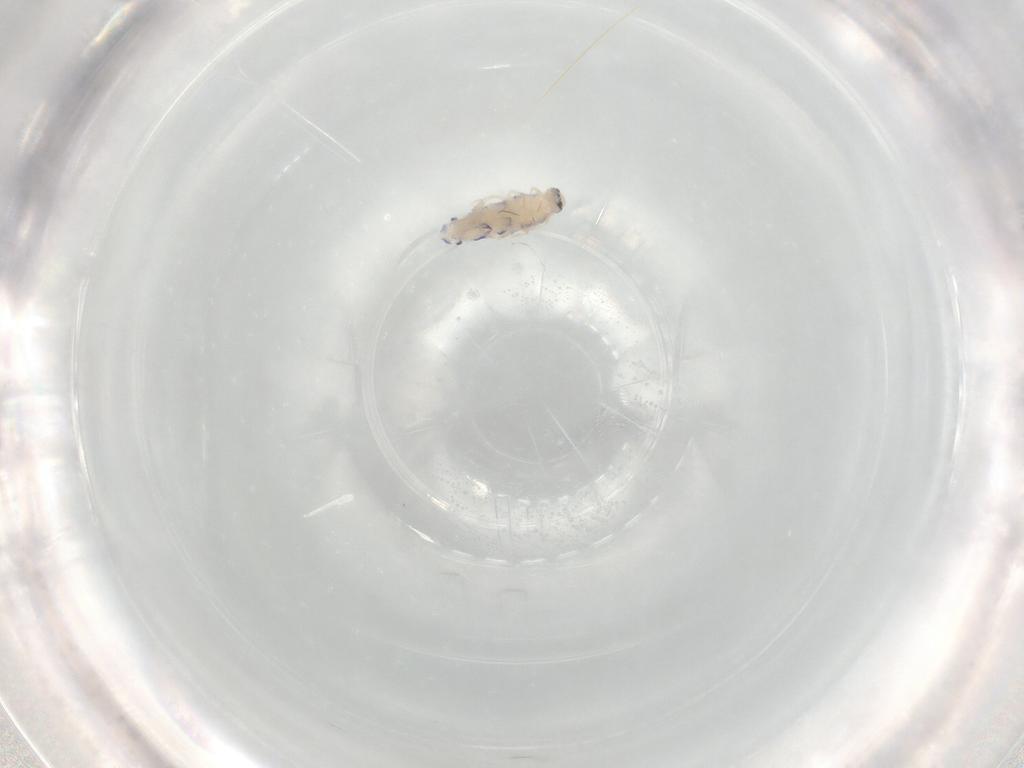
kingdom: Animalia
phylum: Arthropoda
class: Collembola
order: Entomobryomorpha
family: Entomobryidae
